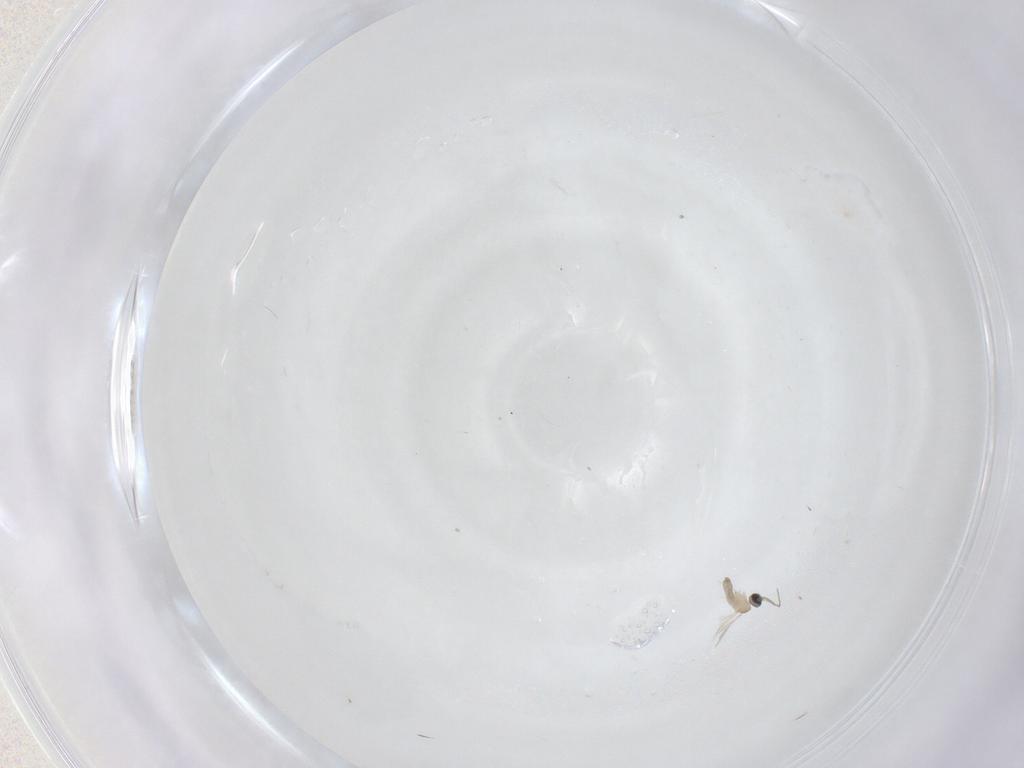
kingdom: Animalia
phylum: Arthropoda
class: Insecta
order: Diptera
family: Cecidomyiidae
